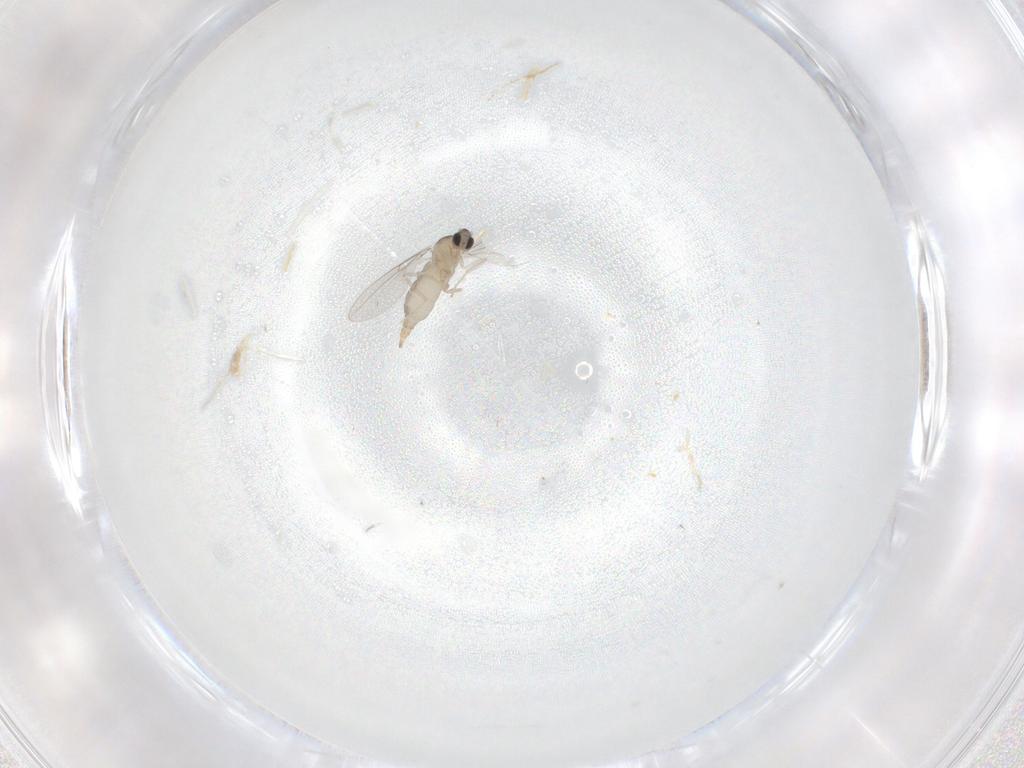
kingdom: Animalia
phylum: Arthropoda
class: Insecta
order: Diptera
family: Cecidomyiidae
